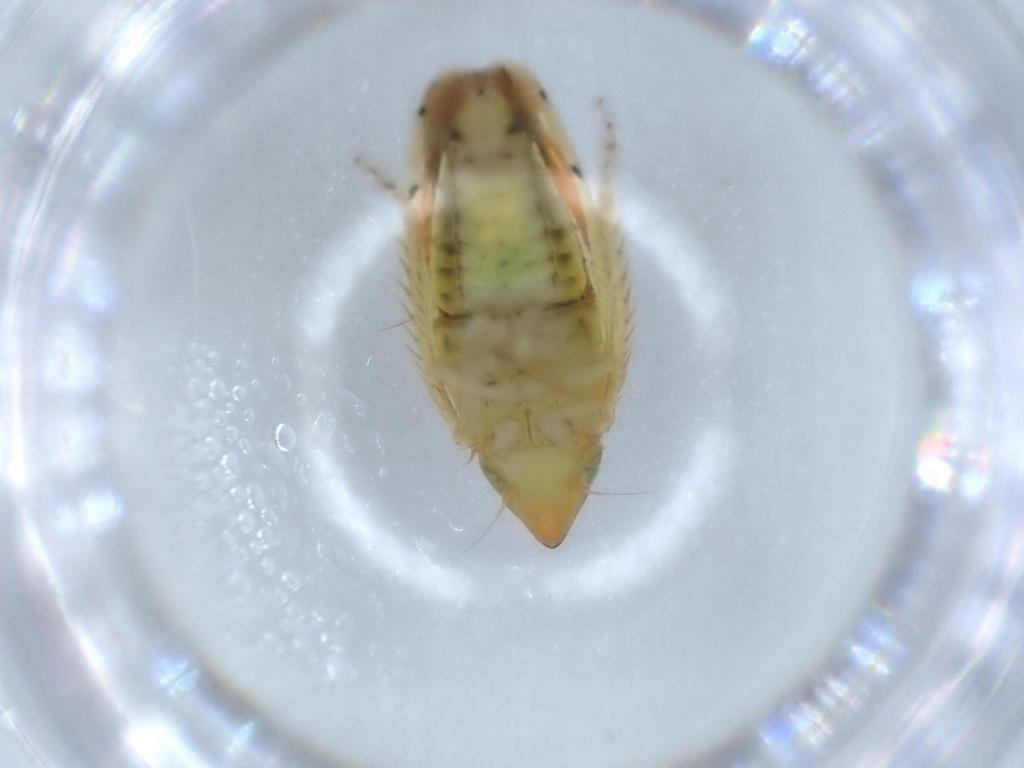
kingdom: Animalia
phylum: Arthropoda
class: Insecta
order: Hemiptera
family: Cicadellidae
